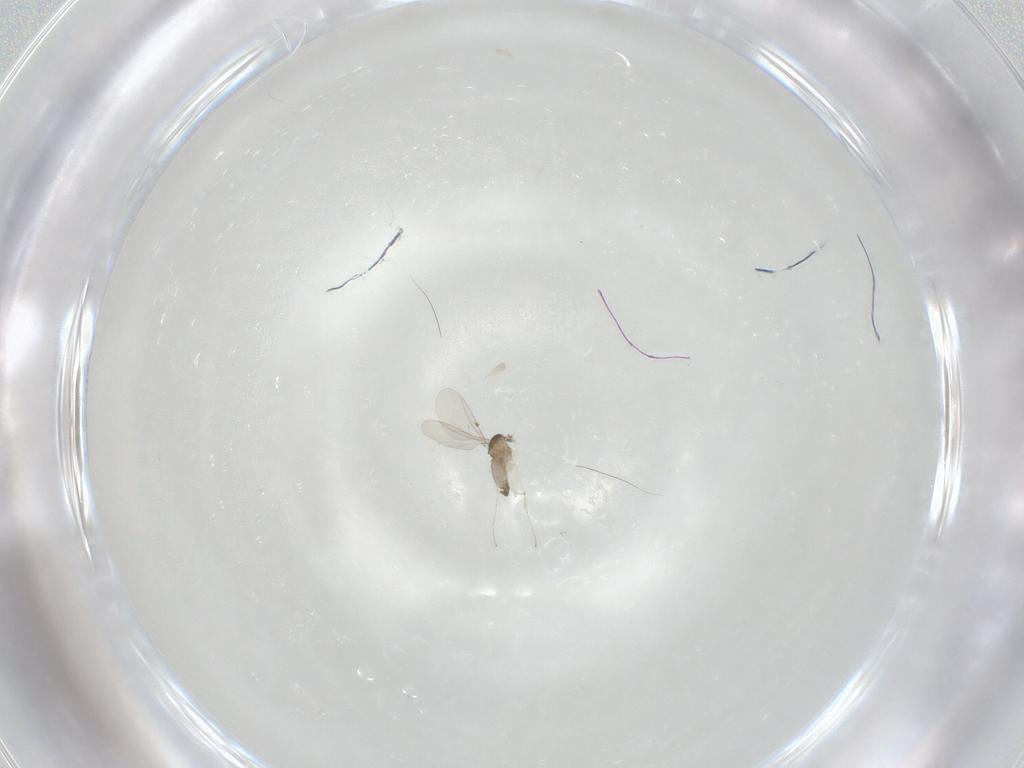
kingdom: Animalia
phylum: Arthropoda
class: Insecta
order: Diptera
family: Cecidomyiidae
